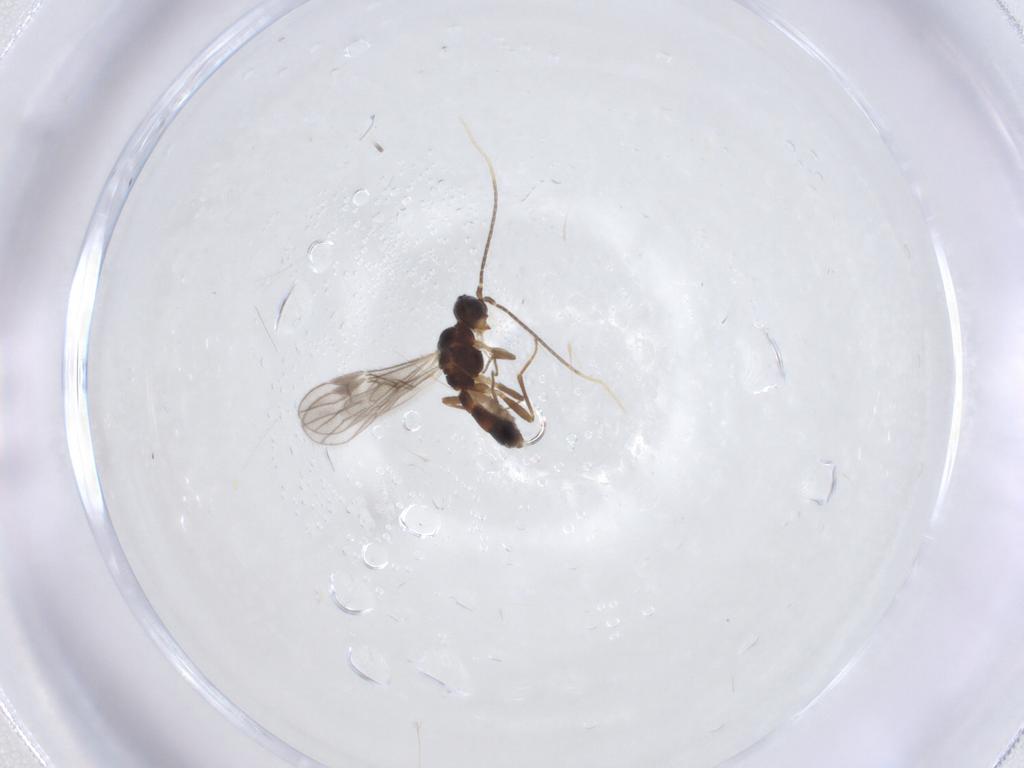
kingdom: Animalia
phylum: Arthropoda
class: Insecta
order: Hymenoptera
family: Braconidae
